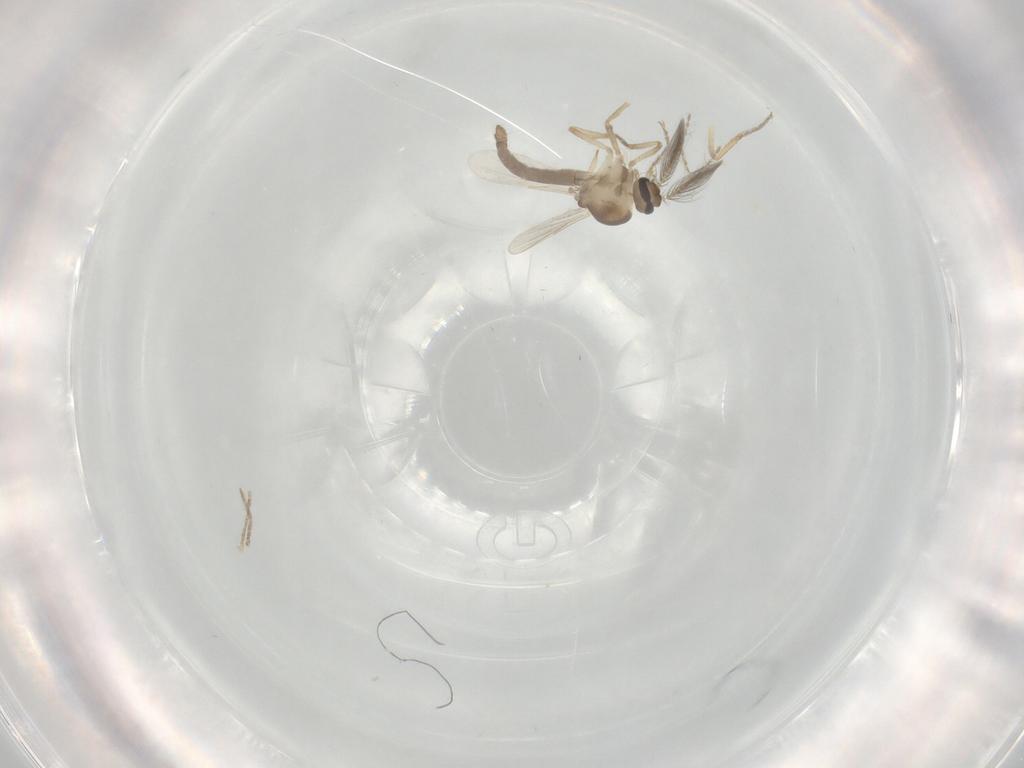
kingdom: Animalia
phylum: Arthropoda
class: Insecta
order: Diptera
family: Ceratopogonidae
